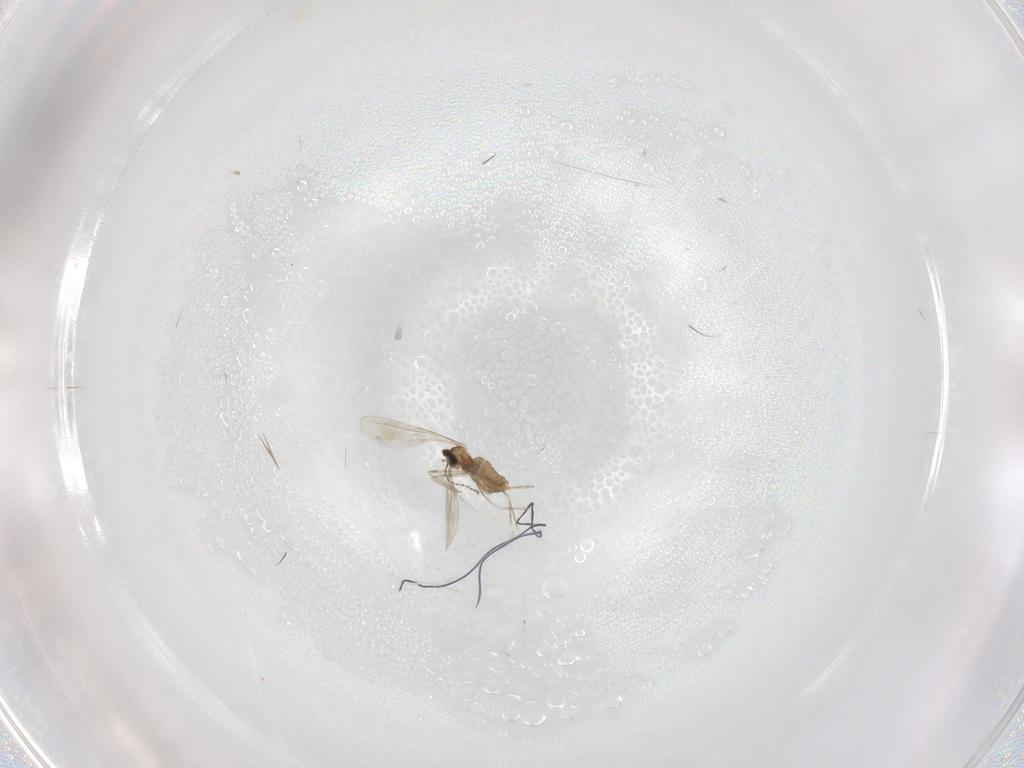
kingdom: Animalia
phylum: Arthropoda
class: Insecta
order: Diptera
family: Cecidomyiidae
